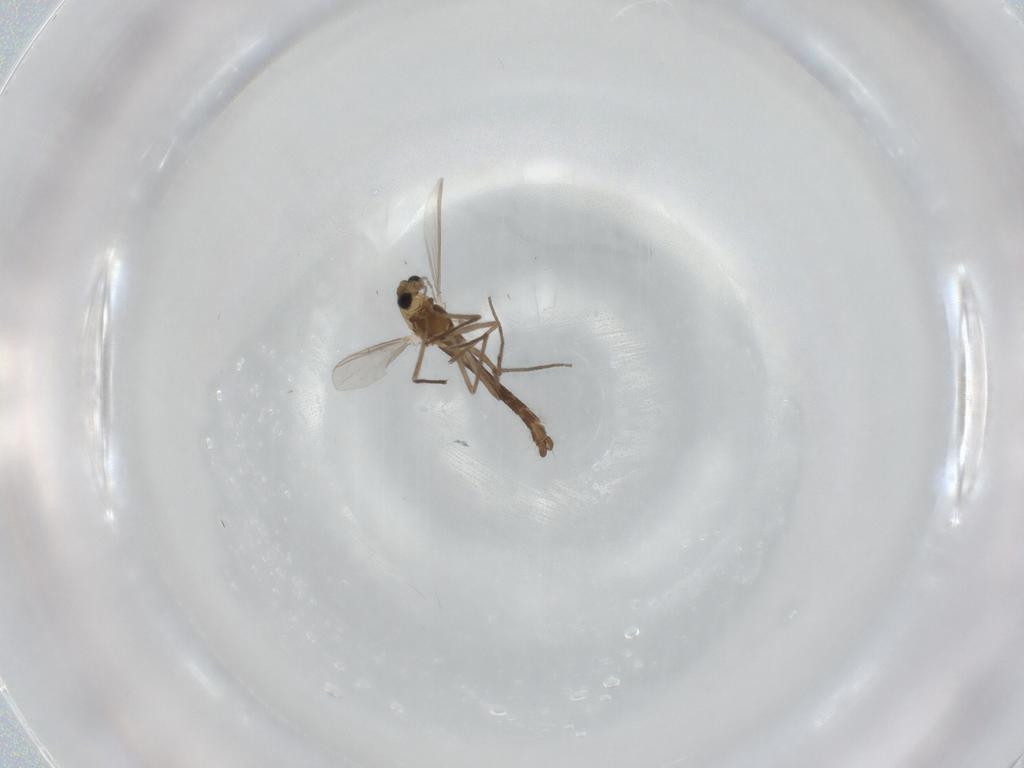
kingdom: Animalia
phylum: Arthropoda
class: Insecta
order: Diptera
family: Chironomidae
